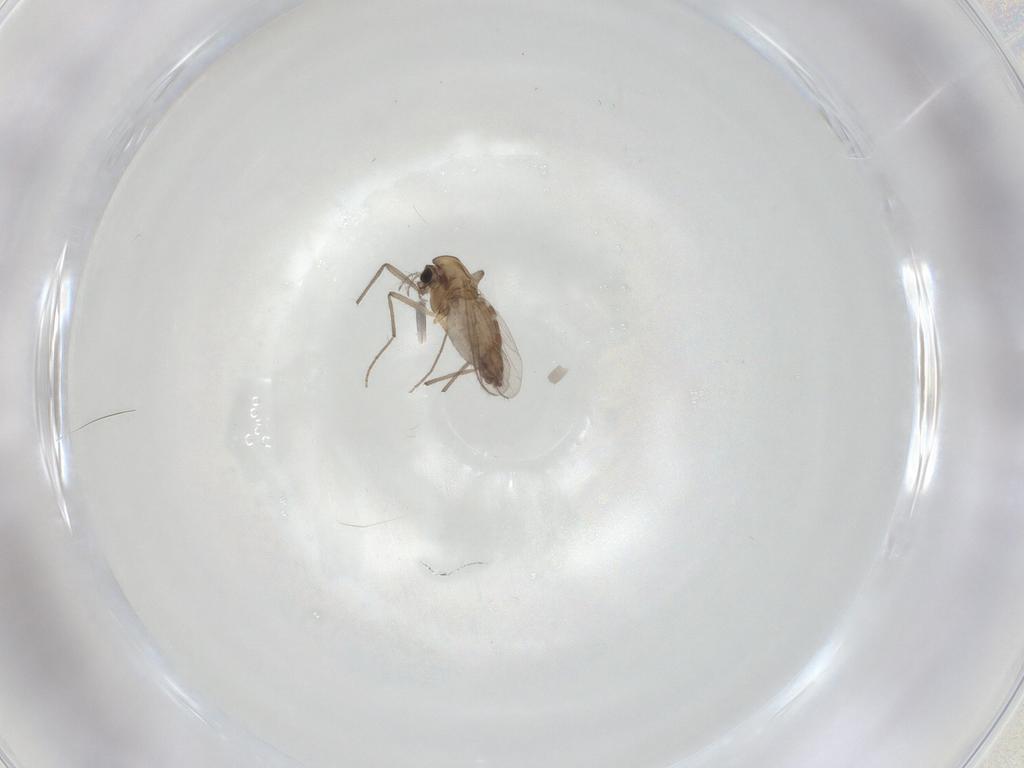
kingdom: Animalia
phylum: Arthropoda
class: Insecta
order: Diptera
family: Chironomidae
